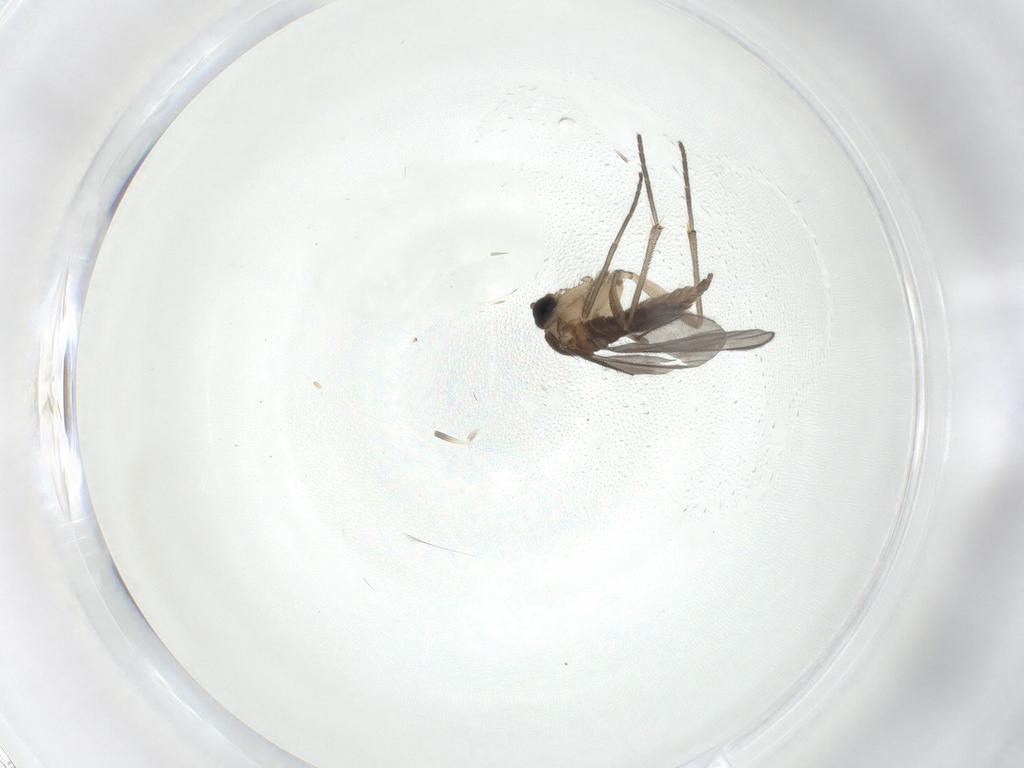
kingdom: Animalia
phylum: Arthropoda
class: Insecta
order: Diptera
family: Sciaridae
